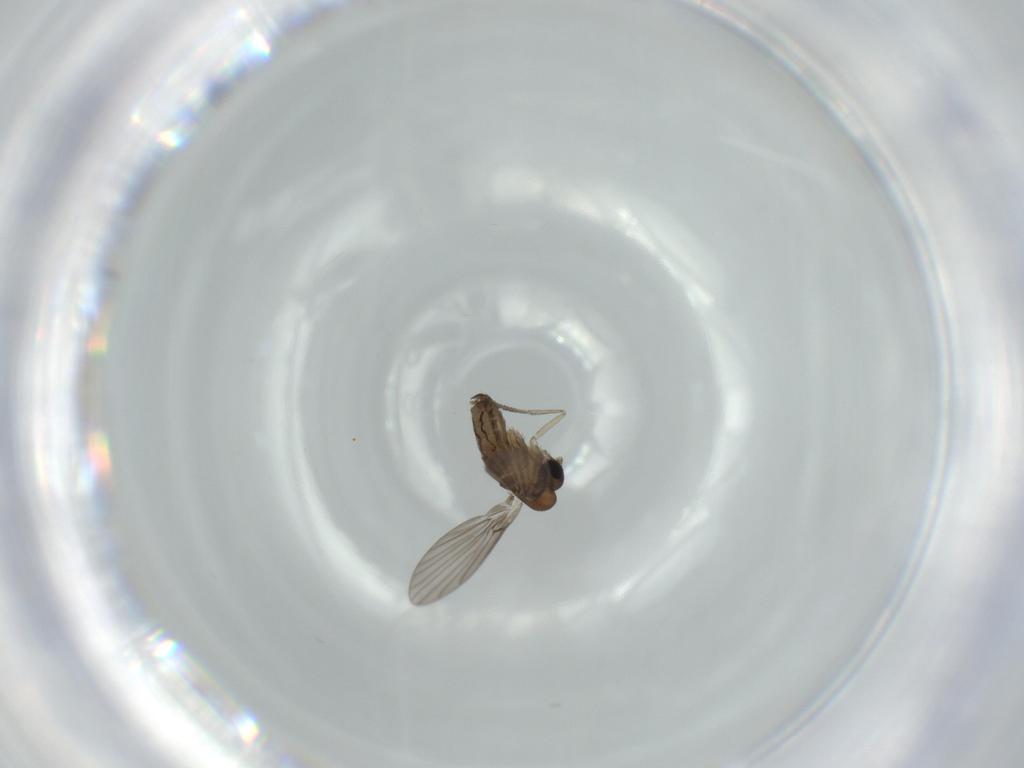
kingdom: Animalia
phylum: Arthropoda
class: Insecta
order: Diptera
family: Psychodidae
